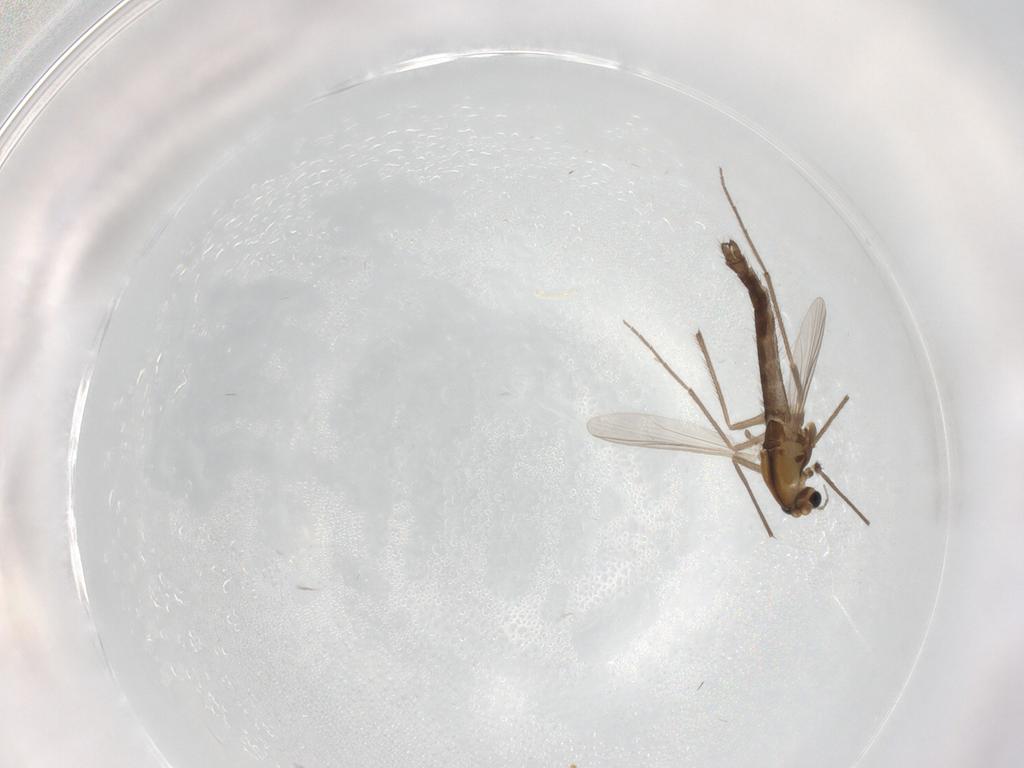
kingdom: Animalia
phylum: Arthropoda
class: Insecta
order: Diptera
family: Chironomidae
